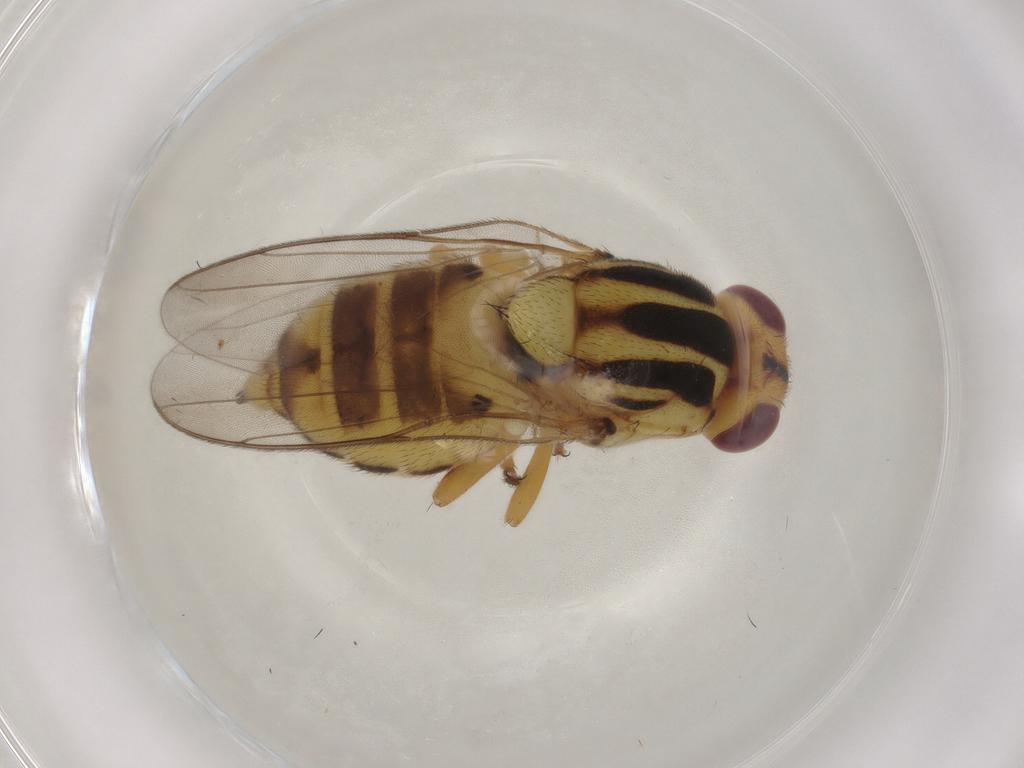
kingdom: Animalia
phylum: Arthropoda
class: Insecta
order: Diptera
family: Chloropidae
